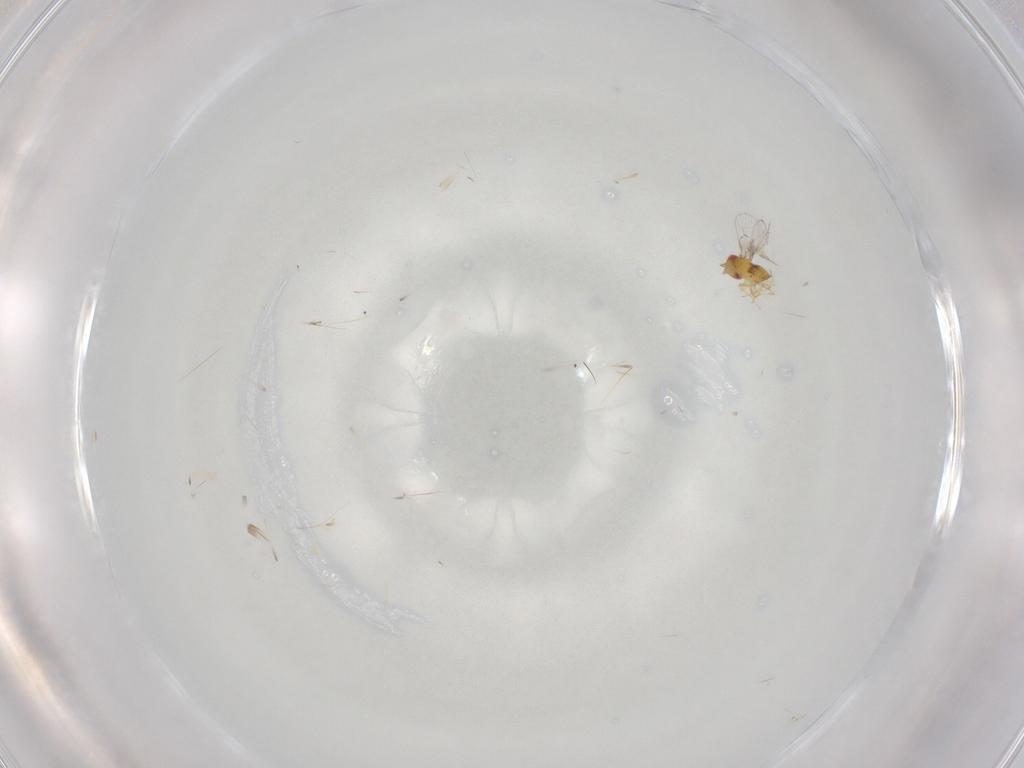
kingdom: Animalia
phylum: Arthropoda
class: Insecta
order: Hymenoptera
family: Trichogrammatidae
